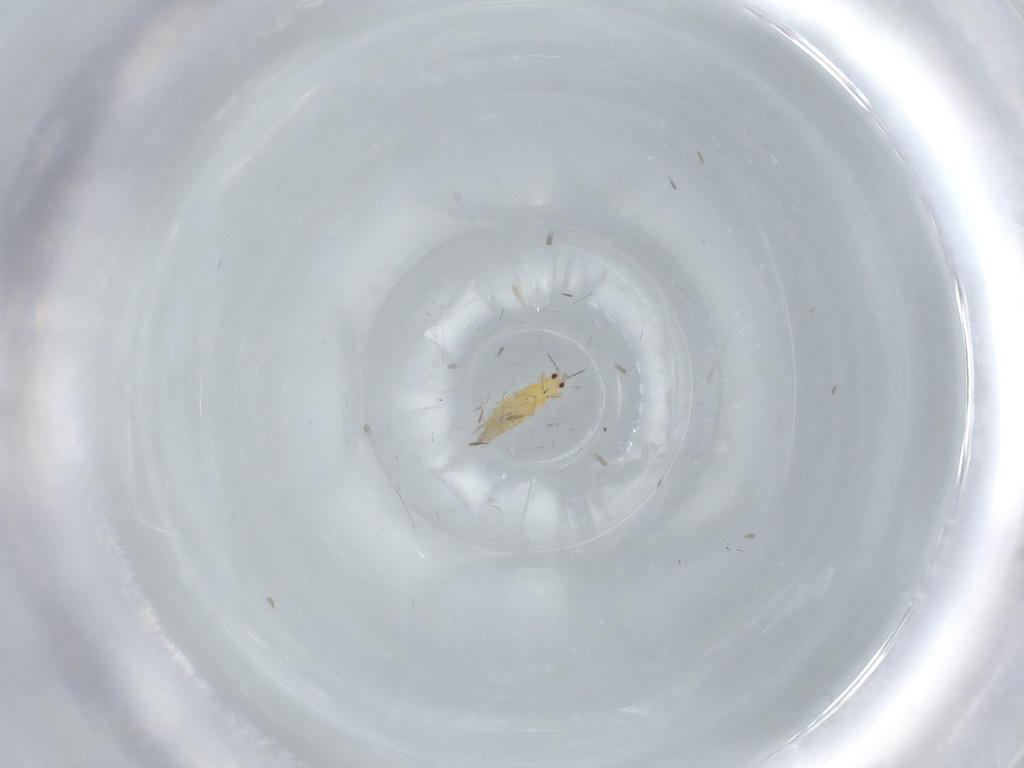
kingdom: Animalia
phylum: Arthropoda
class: Insecta
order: Thysanoptera
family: Thripidae
